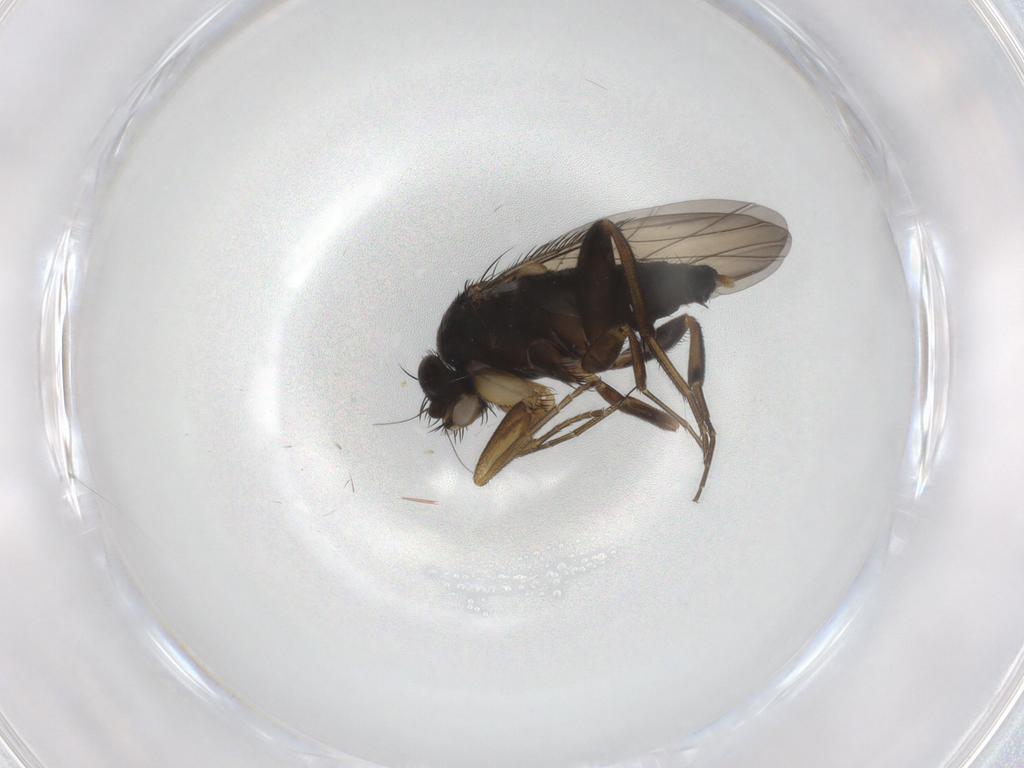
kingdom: Animalia
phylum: Arthropoda
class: Insecta
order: Diptera
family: Phoridae
